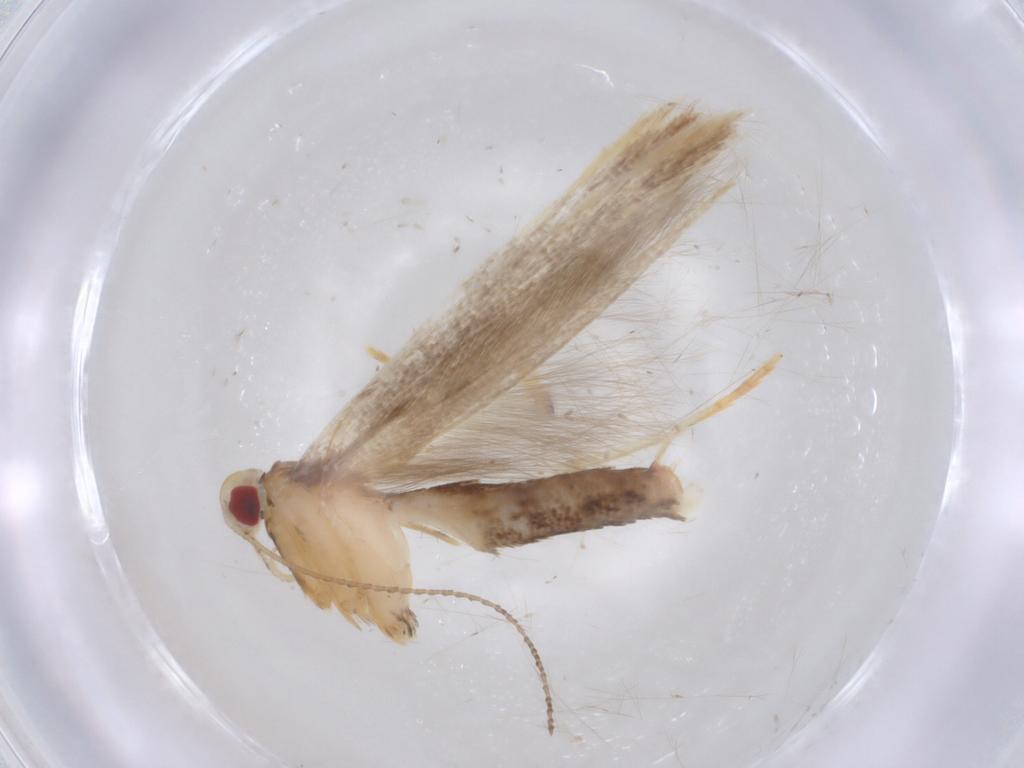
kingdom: Animalia
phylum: Arthropoda
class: Insecta
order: Lepidoptera
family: Cosmopterigidae
